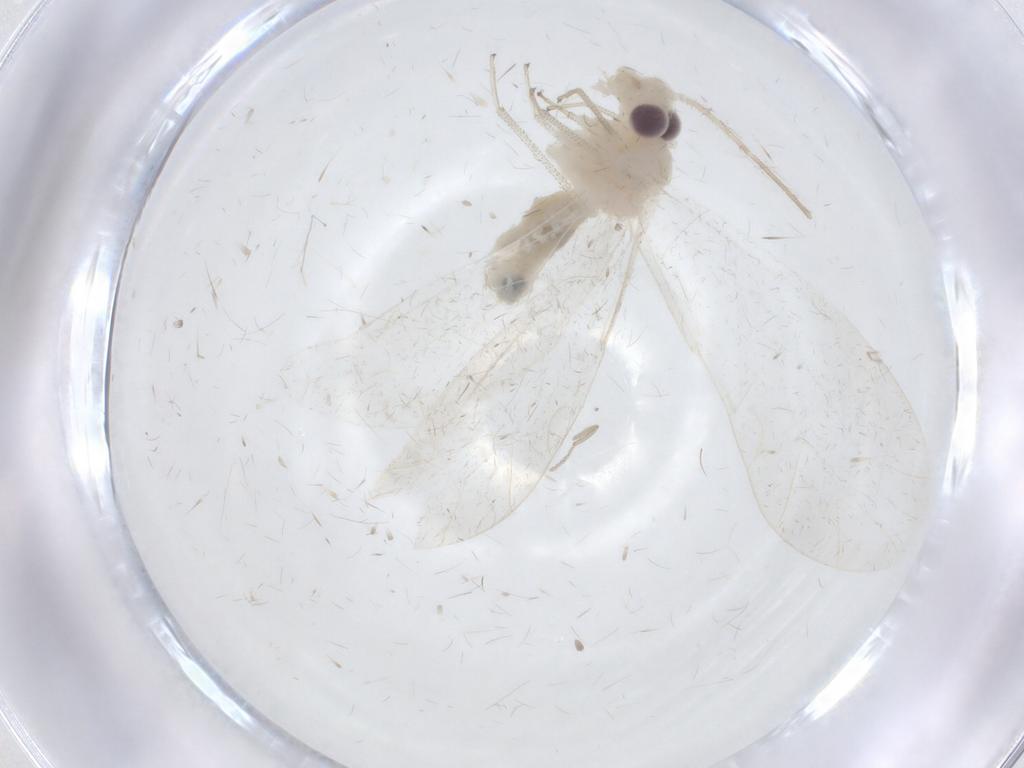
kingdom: Animalia
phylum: Arthropoda
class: Insecta
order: Psocodea
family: Caeciliusidae
